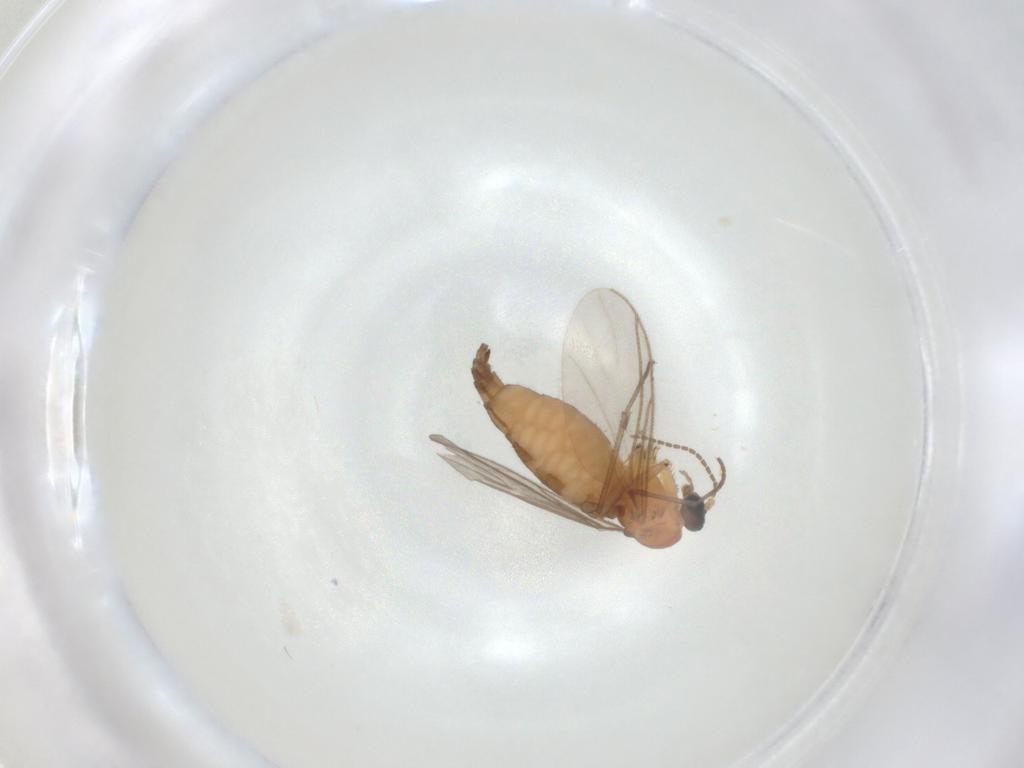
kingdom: Animalia
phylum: Arthropoda
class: Insecta
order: Diptera
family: Sciaridae
